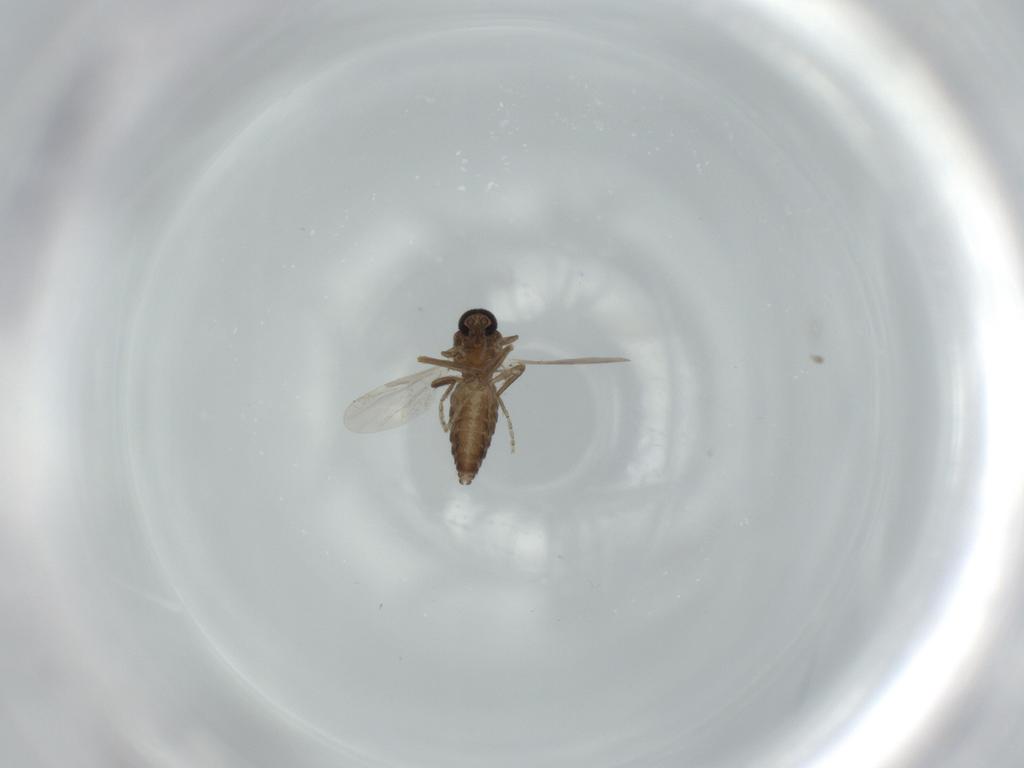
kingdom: Animalia
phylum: Arthropoda
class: Insecta
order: Diptera
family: Ceratopogonidae
